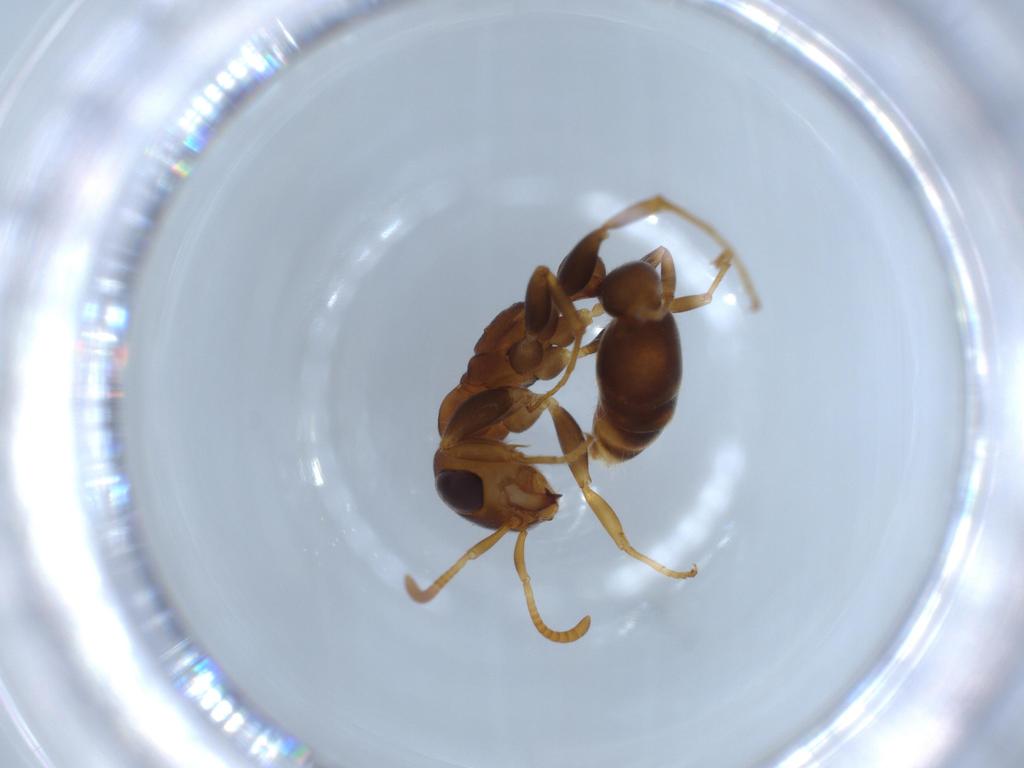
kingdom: Animalia
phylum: Arthropoda
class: Insecta
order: Hymenoptera
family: Formicidae
